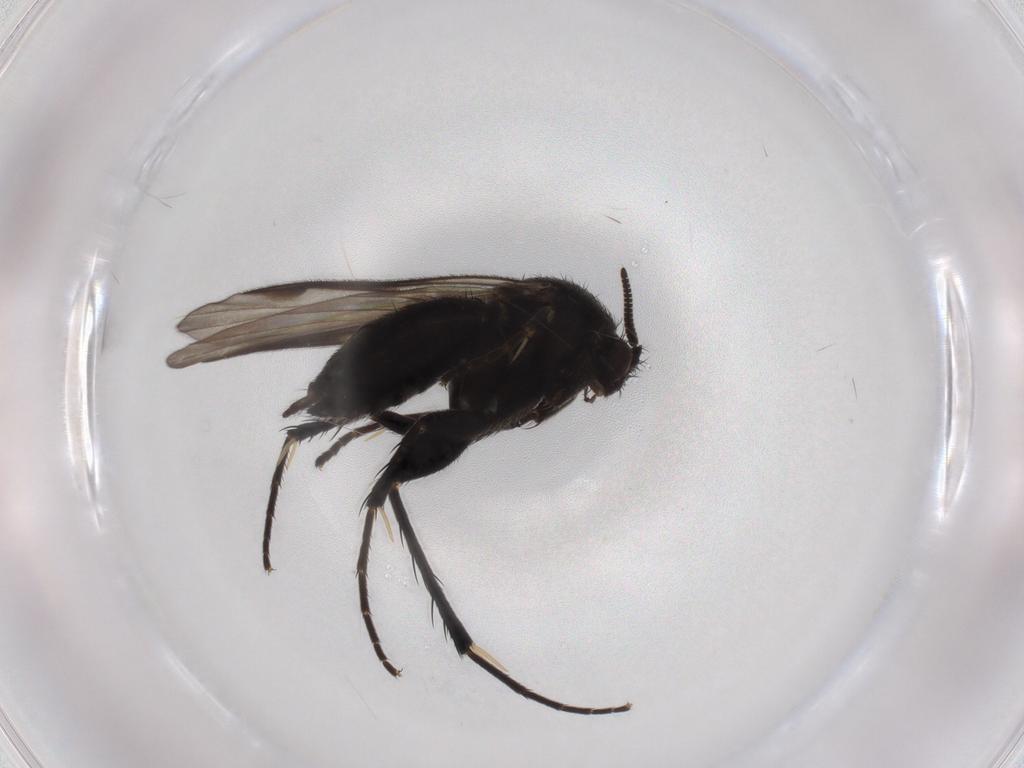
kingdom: Animalia
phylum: Arthropoda
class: Insecta
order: Diptera
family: Mycetophilidae
